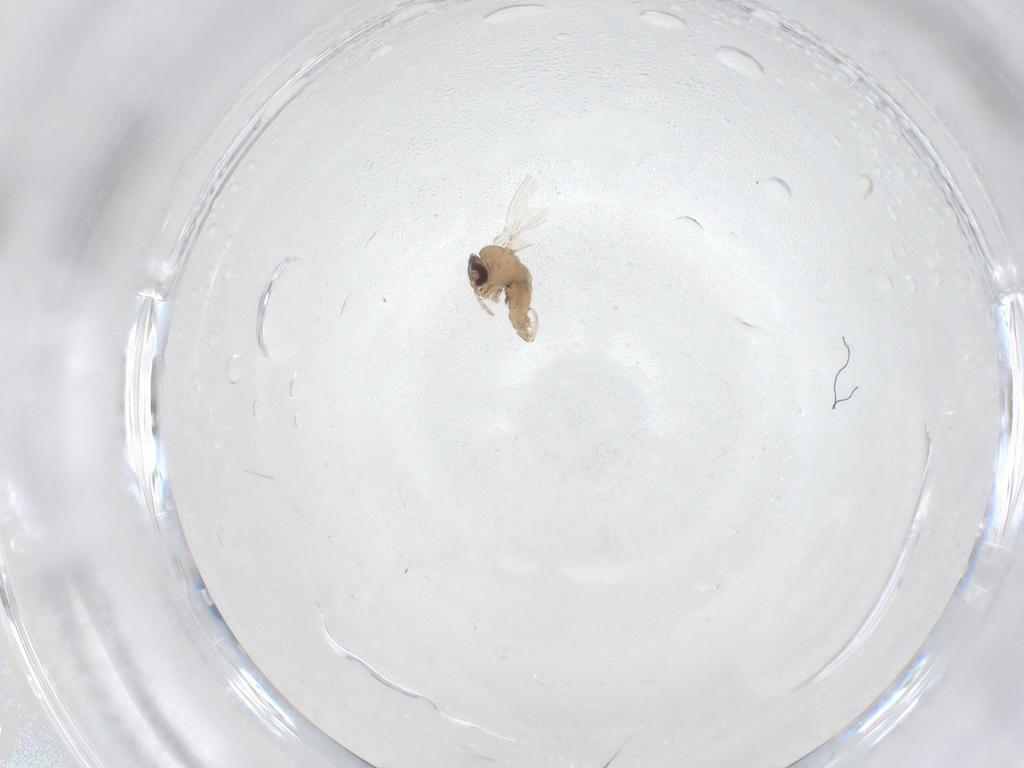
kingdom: Animalia
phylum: Arthropoda
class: Insecta
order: Diptera
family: Psychodidae
